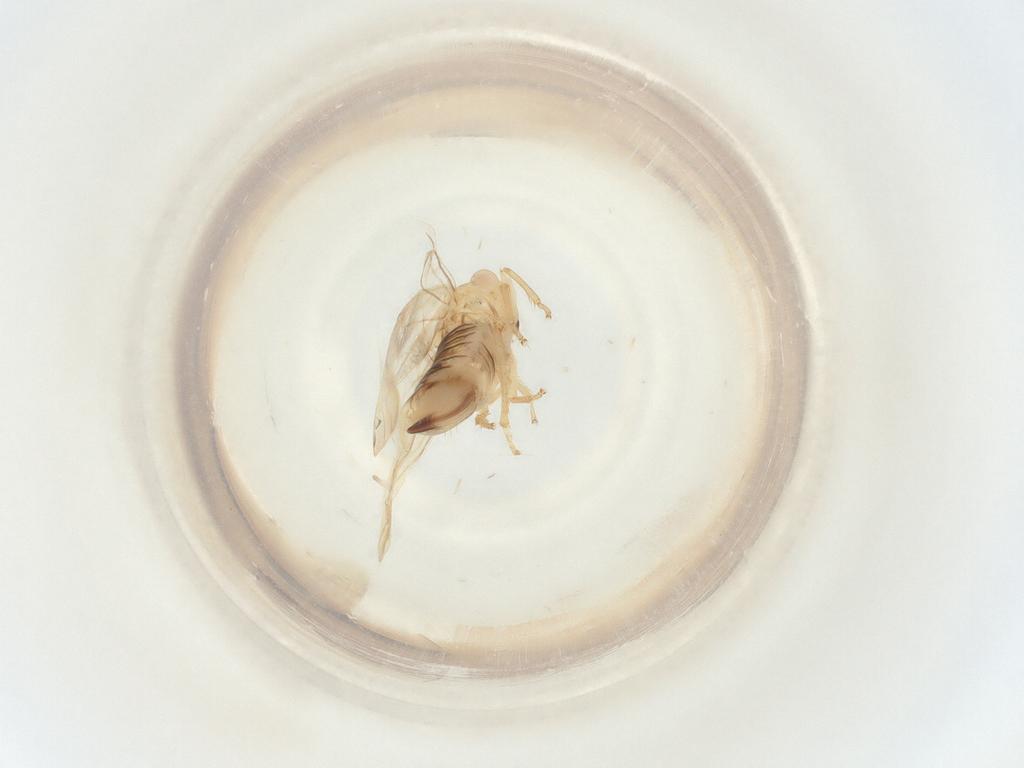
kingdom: Animalia
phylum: Arthropoda
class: Insecta
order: Hemiptera
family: Cicadellidae
